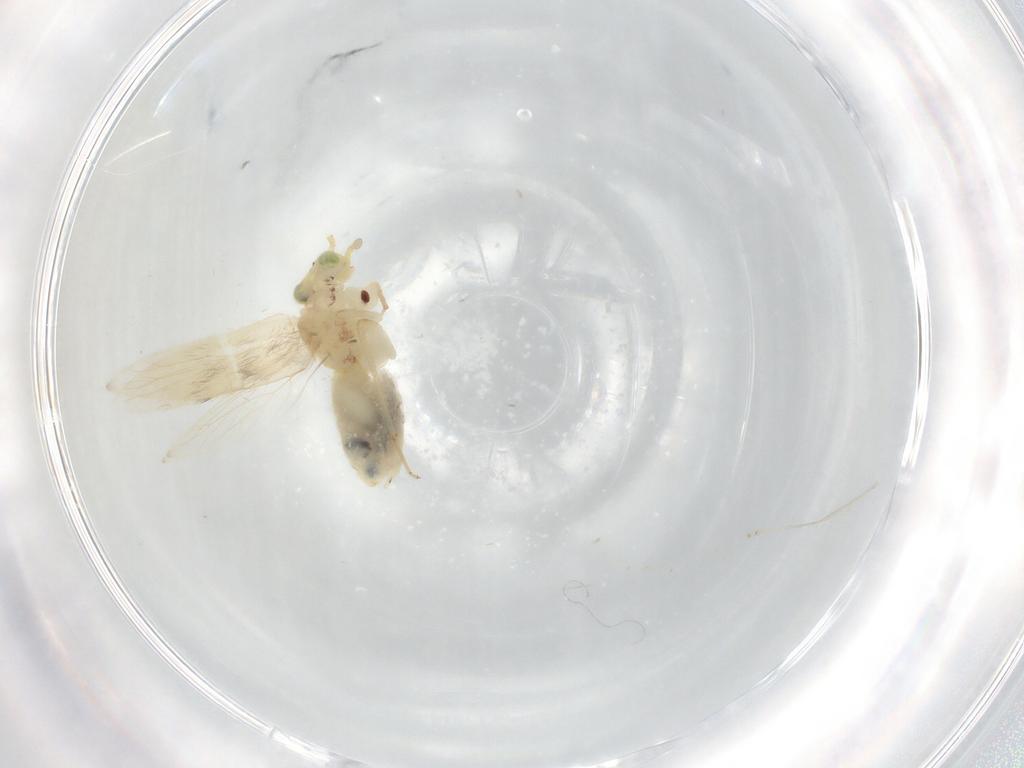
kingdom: Animalia
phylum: Arthropoda
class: Insecta
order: Psocodea
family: Lepidopsocidae
